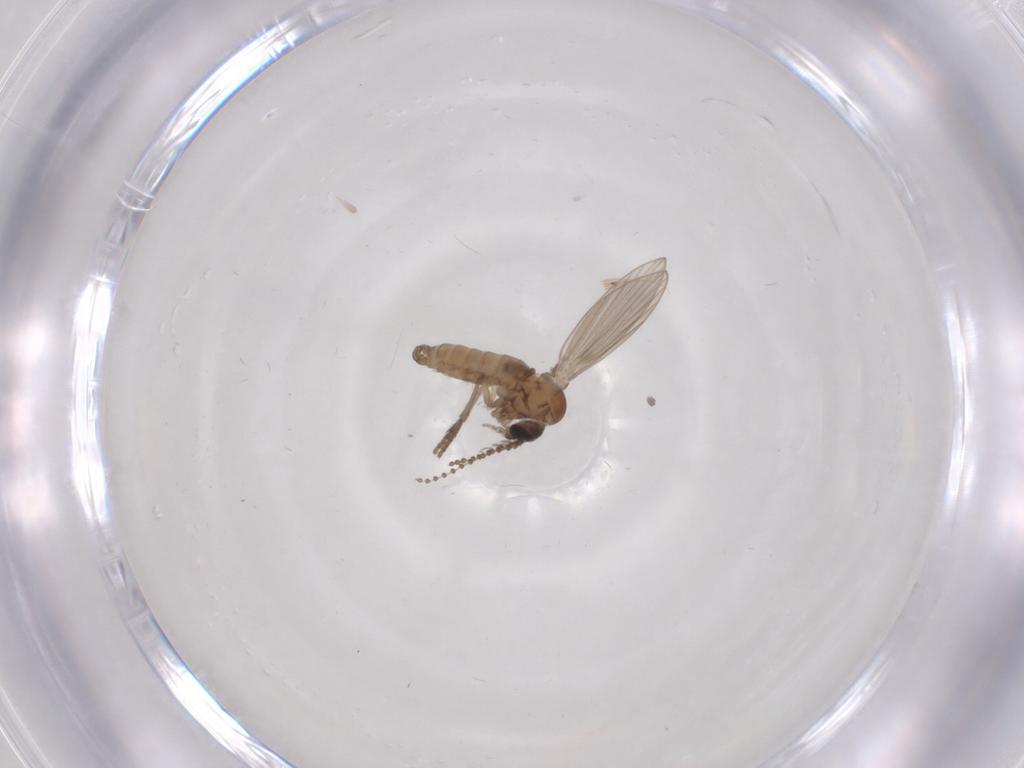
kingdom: Animalia
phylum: Arthropoda
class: Insecta
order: Diptera
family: Psychodidae
